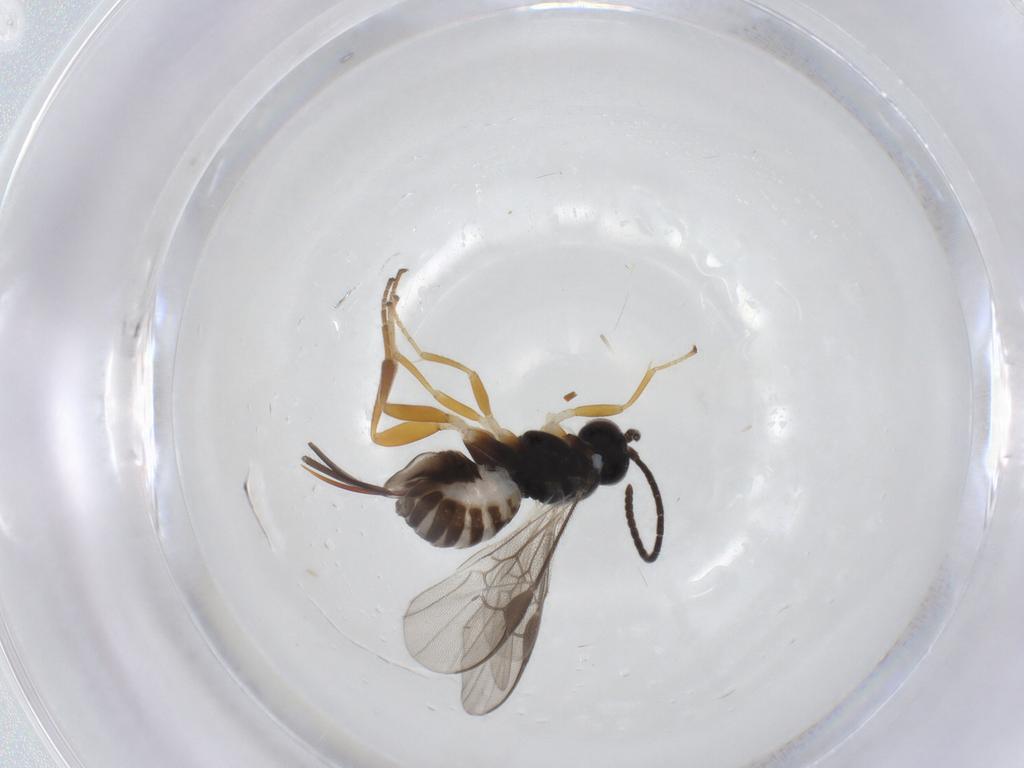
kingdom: Animalia
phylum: Arthropoda
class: Insecta
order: Hymenoptera
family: Braconidae
